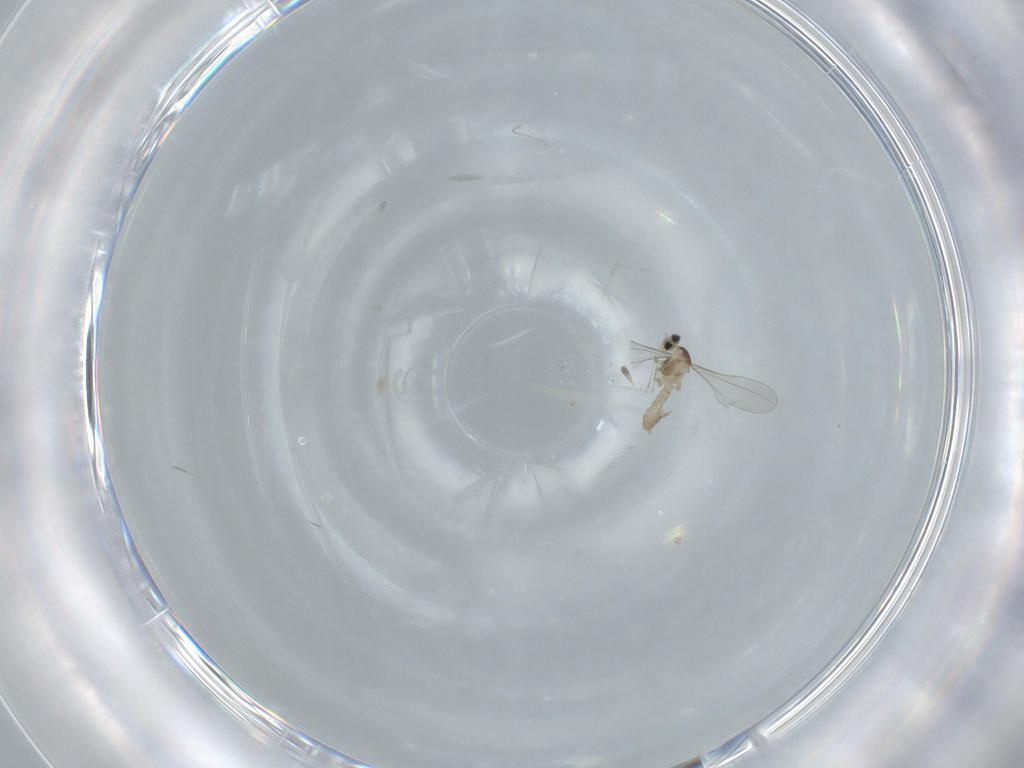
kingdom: Animalia
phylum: Arthropoda
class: Insecta
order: Diptera
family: Cecidomyiidae
